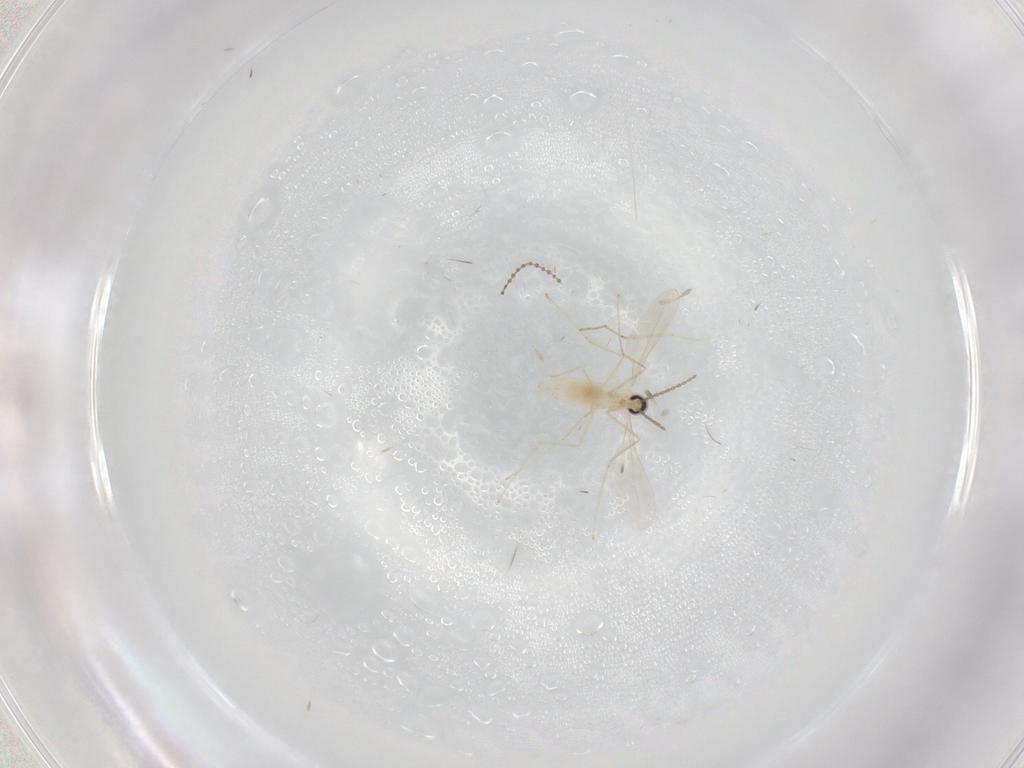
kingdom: Animalia
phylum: Arthropoda
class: Insecta
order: Diptera
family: Cecidomyiidae
